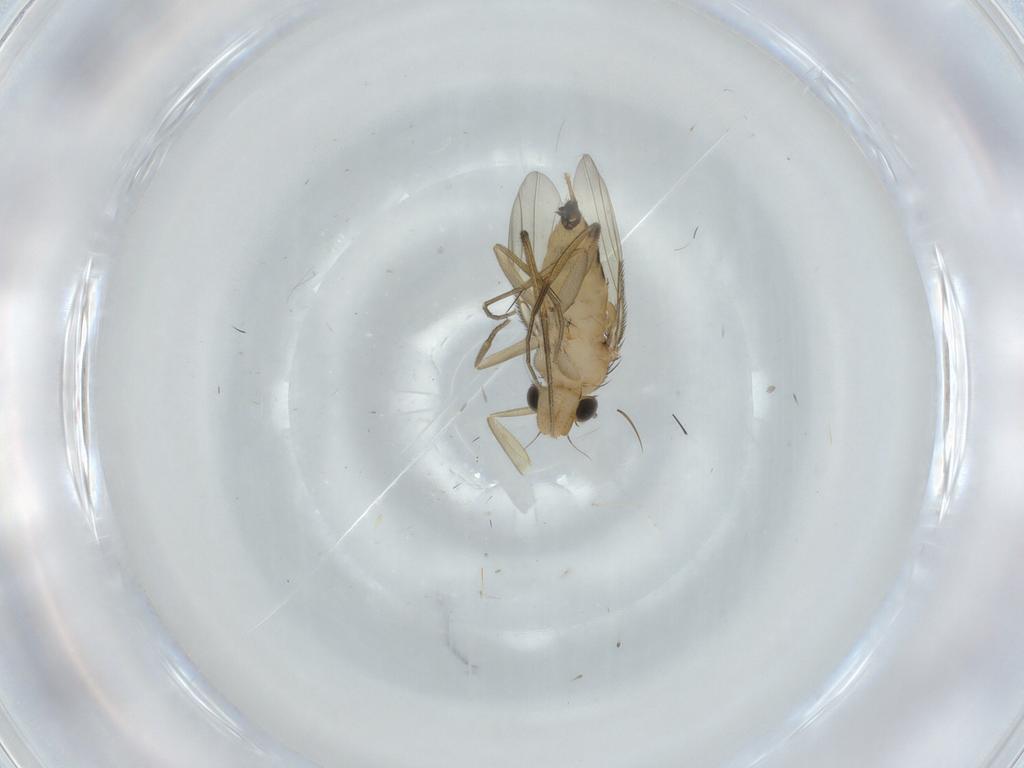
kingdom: Animalia
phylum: Arthropoda
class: Insecta
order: Diptera
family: Cecidomyiidae
